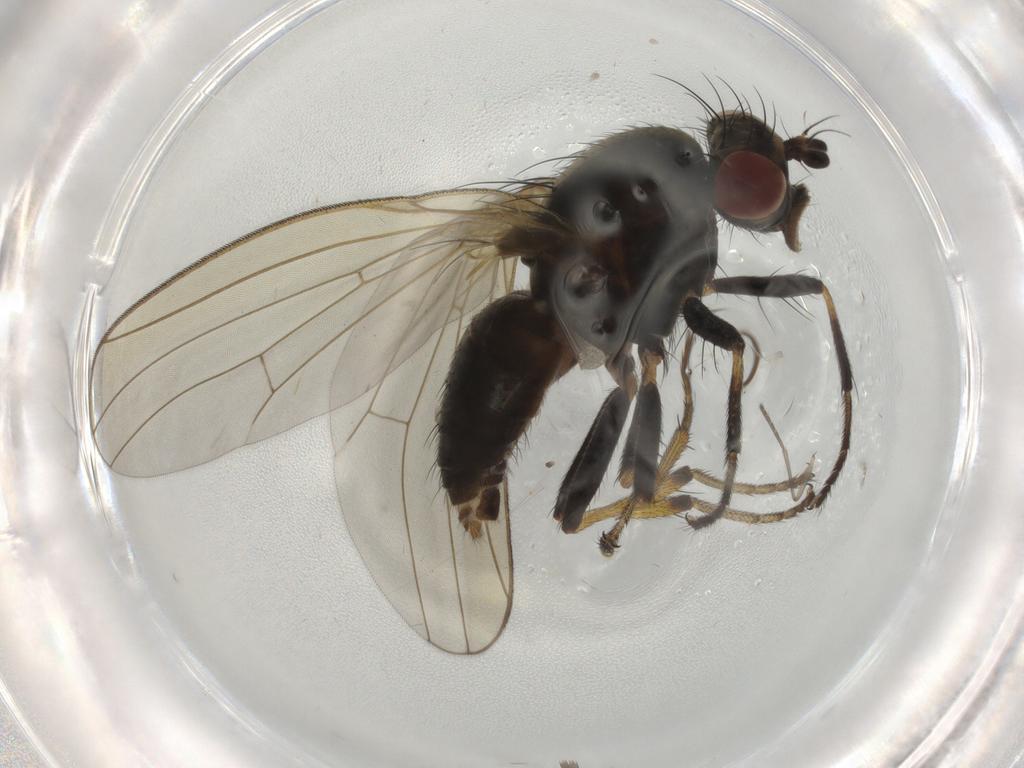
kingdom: Animalia
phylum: Arthropoda
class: Insecta
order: Diptera
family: Lauxaniidae
